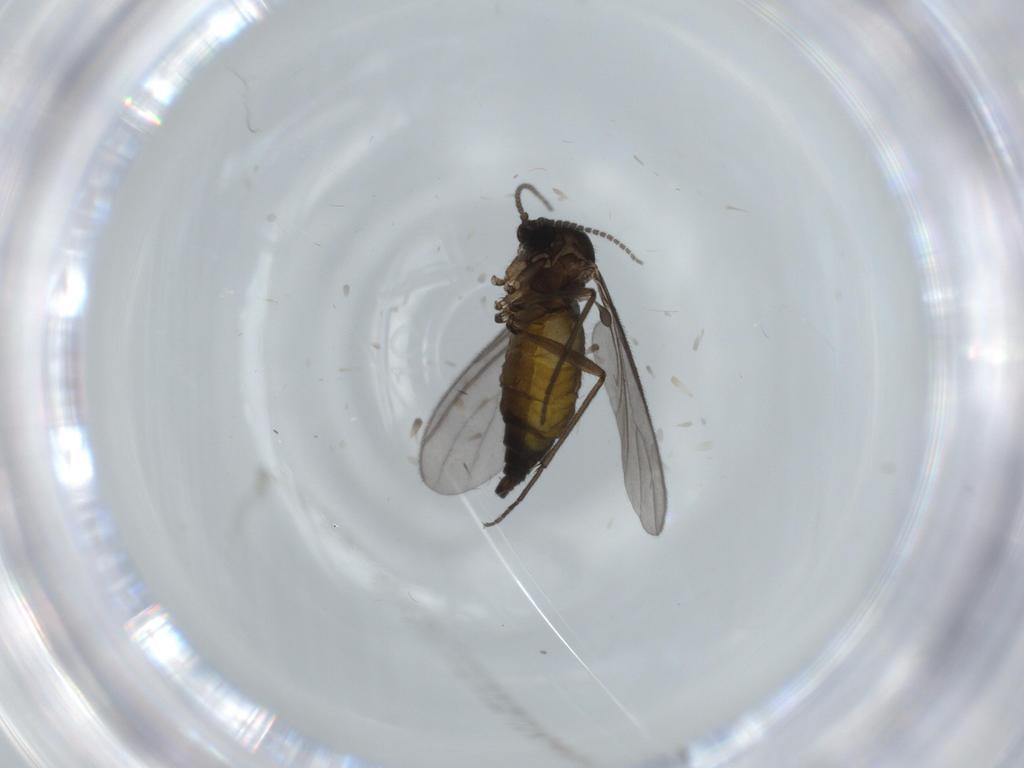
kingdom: Animalia
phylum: Arthropoda
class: Insecta
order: Diptera
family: Sciaridae
